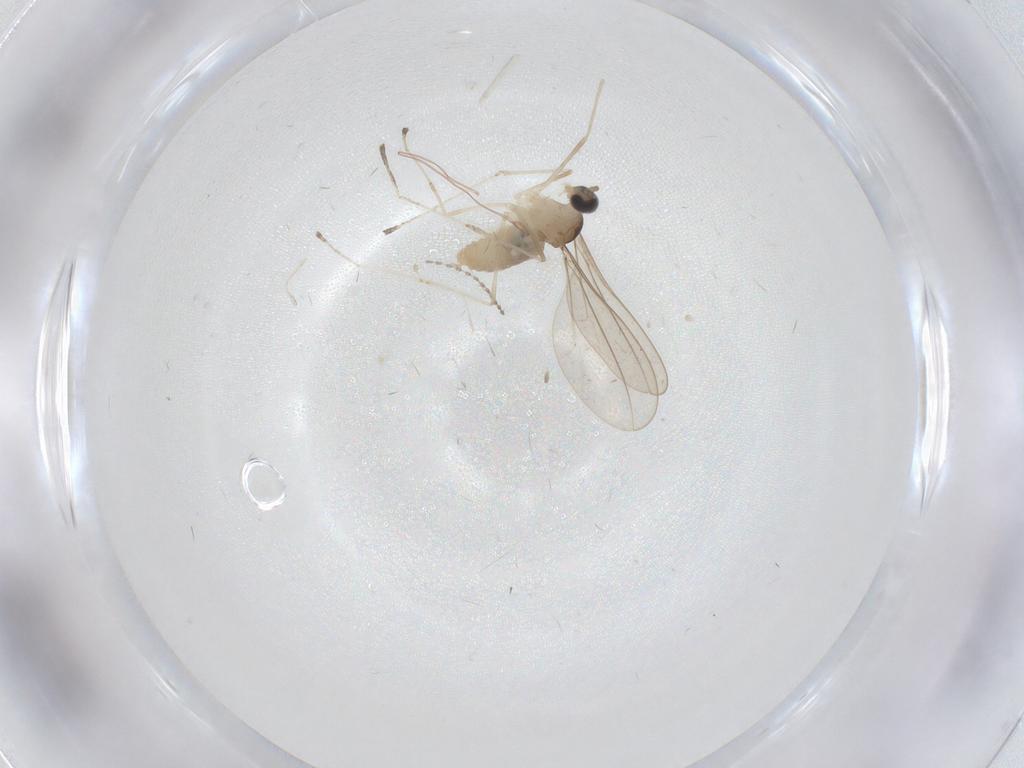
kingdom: Animalia
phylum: Arthropoda
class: Insecta
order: Diptera
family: Cecidomyiidae
